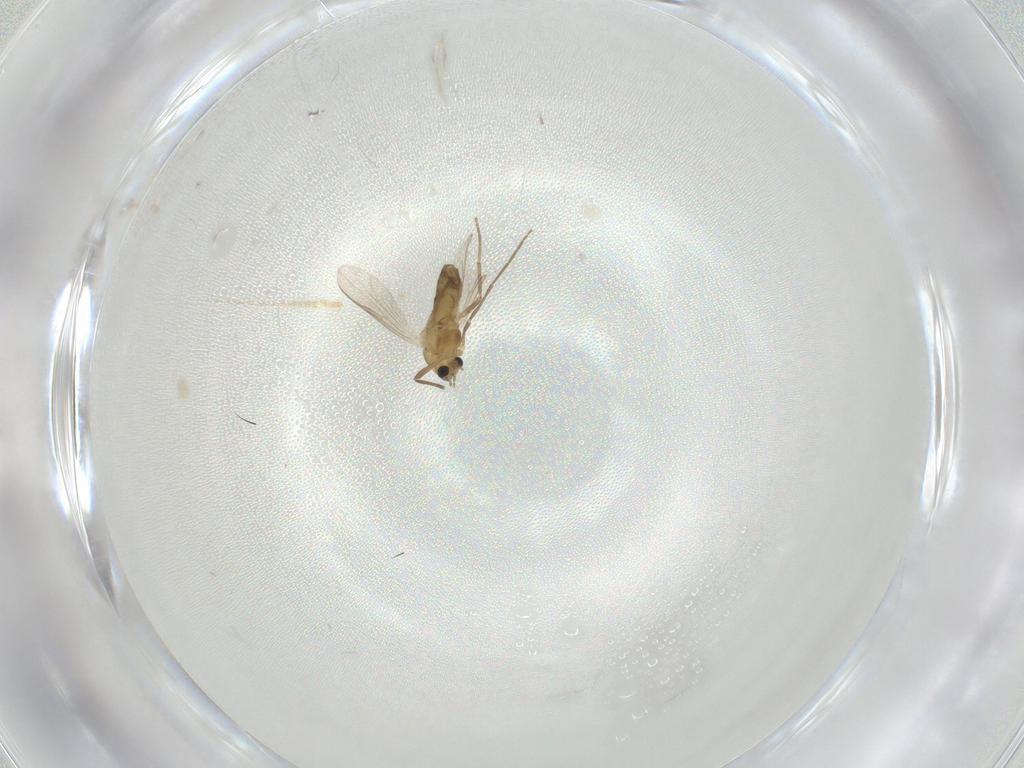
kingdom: Animalia
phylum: Arthropoda
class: Insecta
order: Diptera
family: Chironomidae
